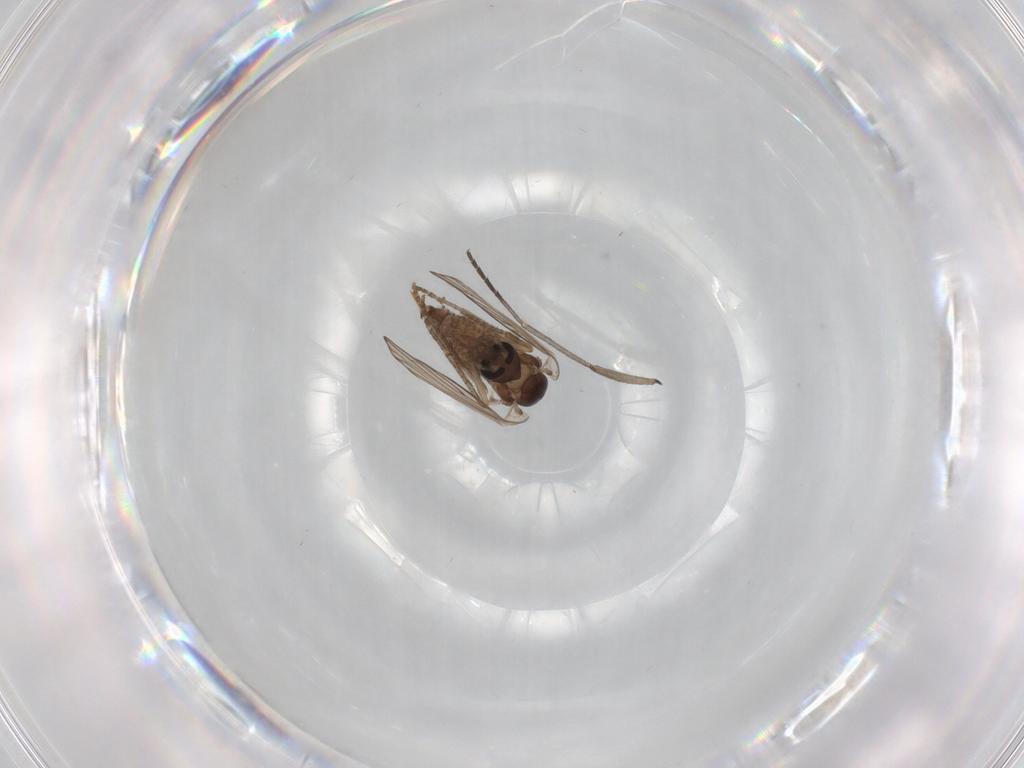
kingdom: Animalia
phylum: Arthropoda
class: Insecta
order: Diptera
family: Psychodidae
